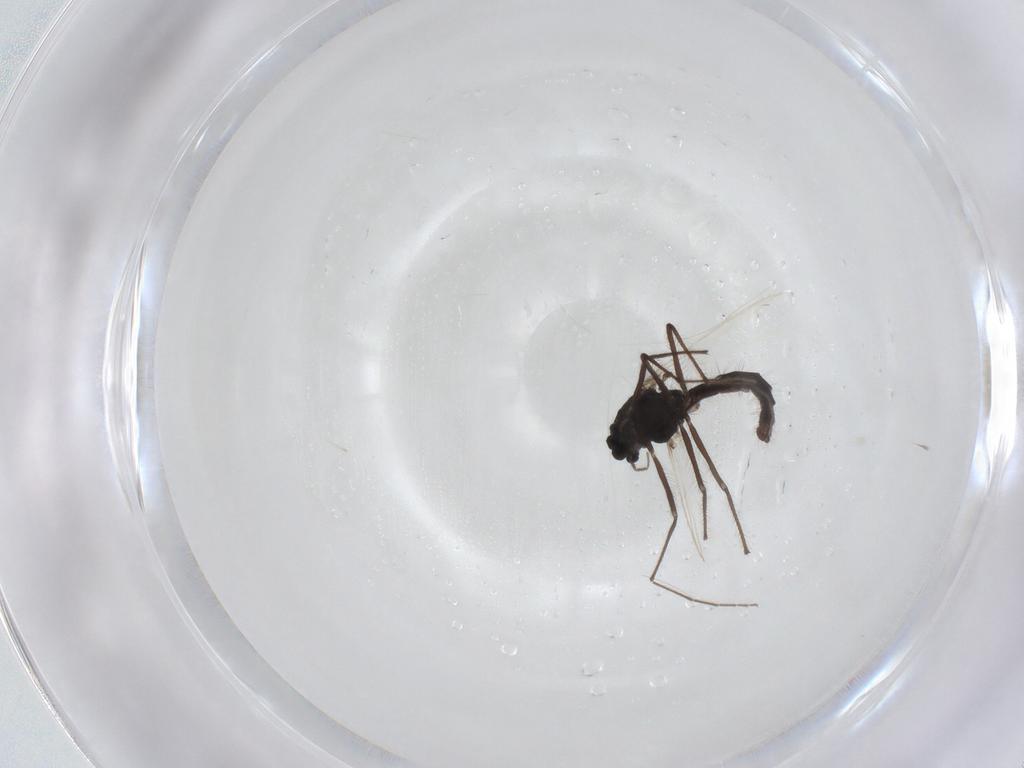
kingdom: Animalia
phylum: Arthropoda
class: Insecta
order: Diptera
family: Chironomidae
